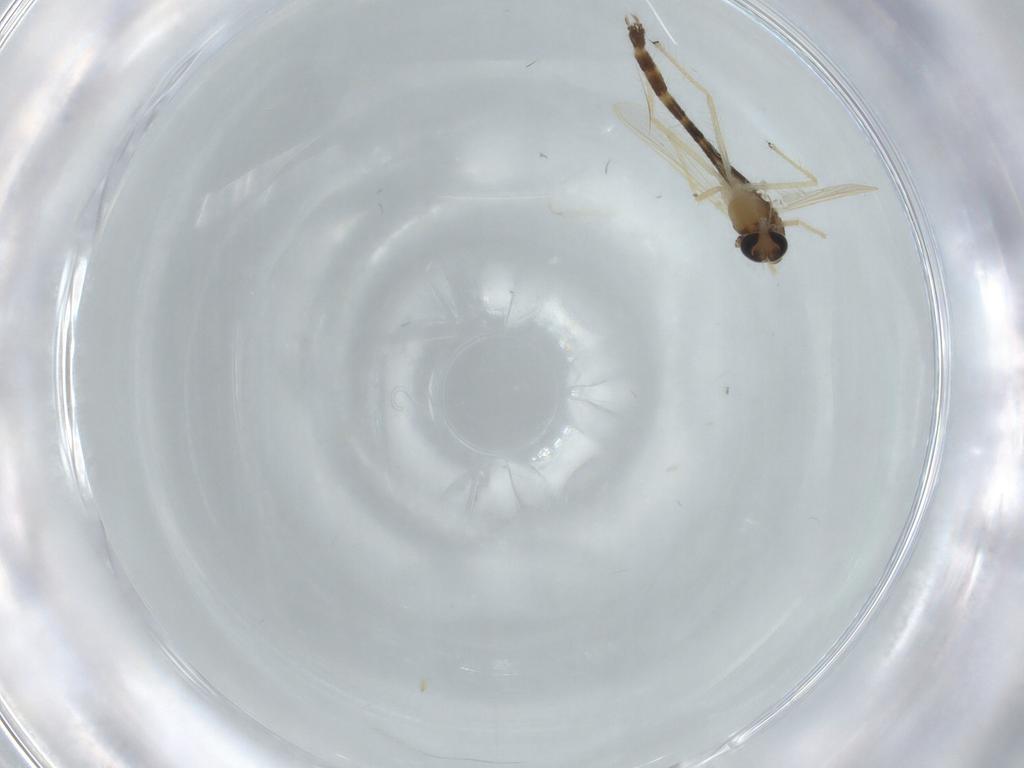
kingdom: Animalia
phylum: Arthropoda
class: Insecta
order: Diptera
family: Chironomidae
